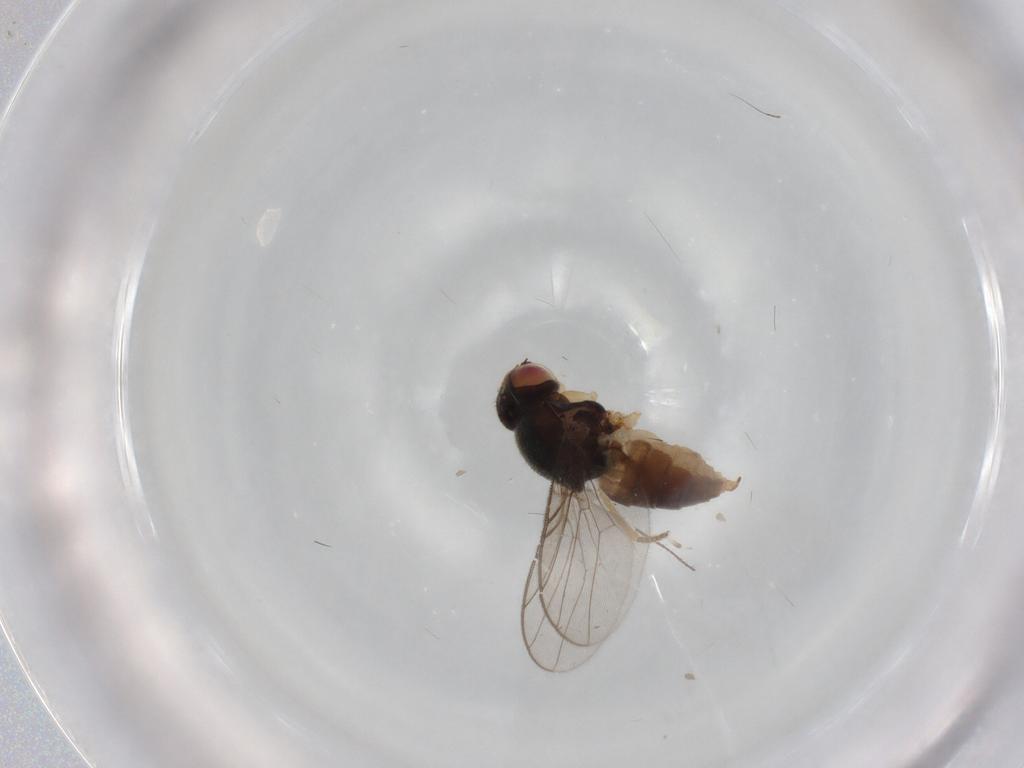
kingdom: Animalia
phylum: Arthropoda
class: Insecta
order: Diptera
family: Chloropidae
